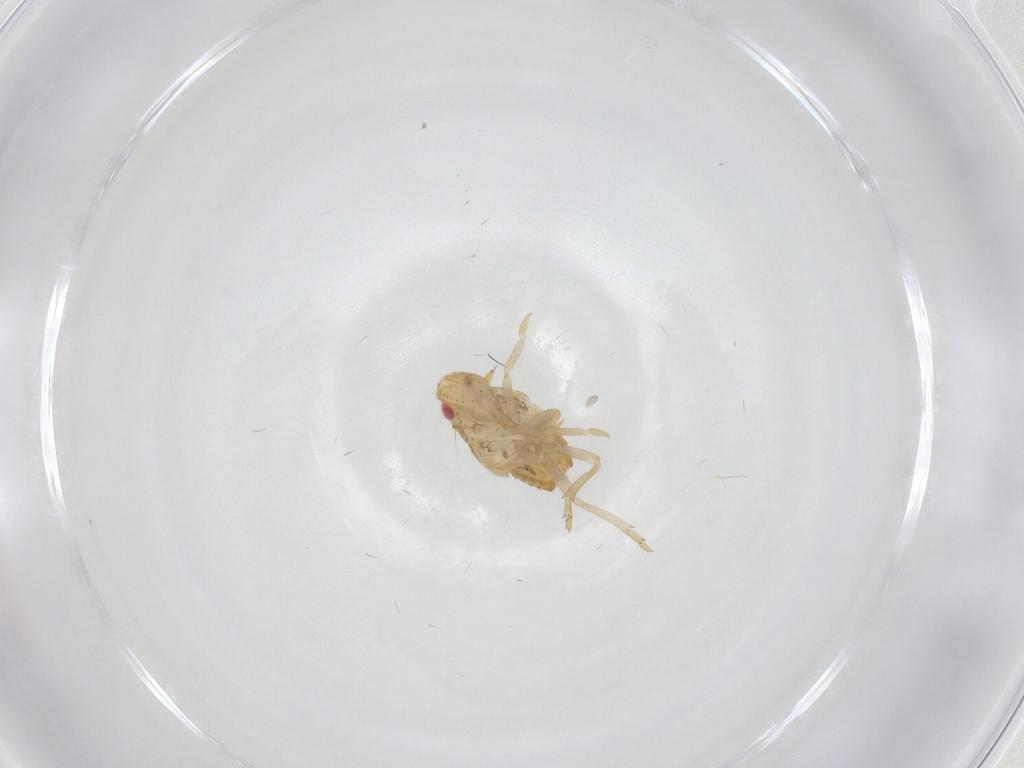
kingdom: Animalia
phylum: Arthropoda
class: Insecta
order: Hemiptera
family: Flatidae
